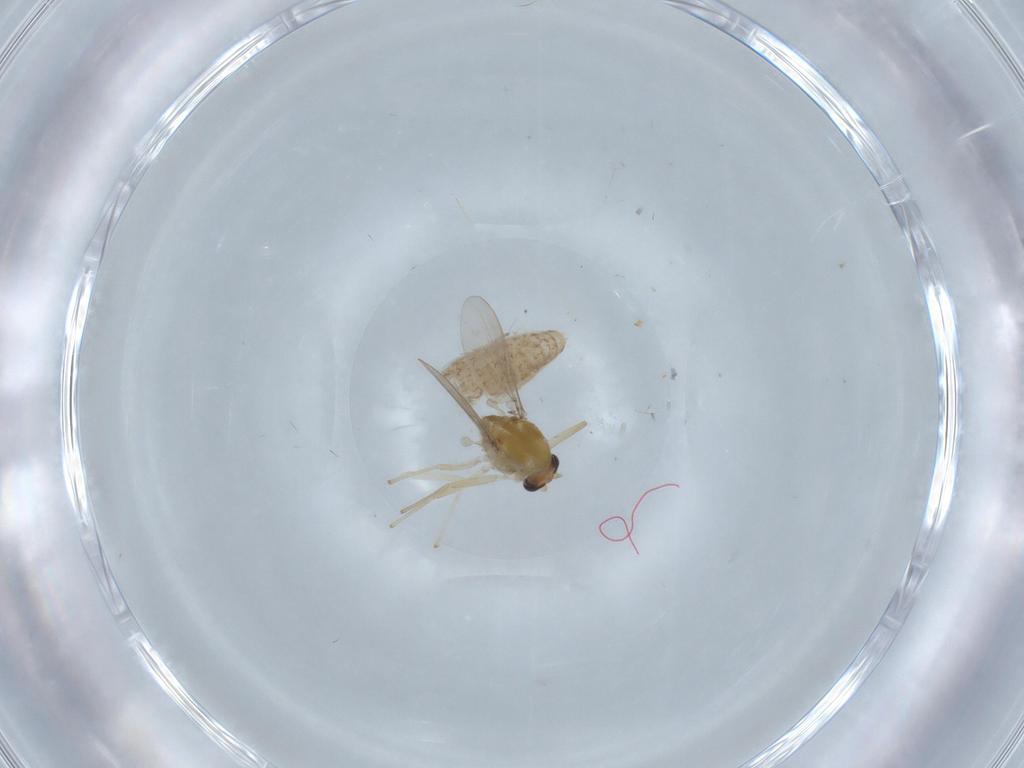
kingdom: Animalia
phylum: Arthropoda
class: Insecta
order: Diptera
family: Chironomidae
